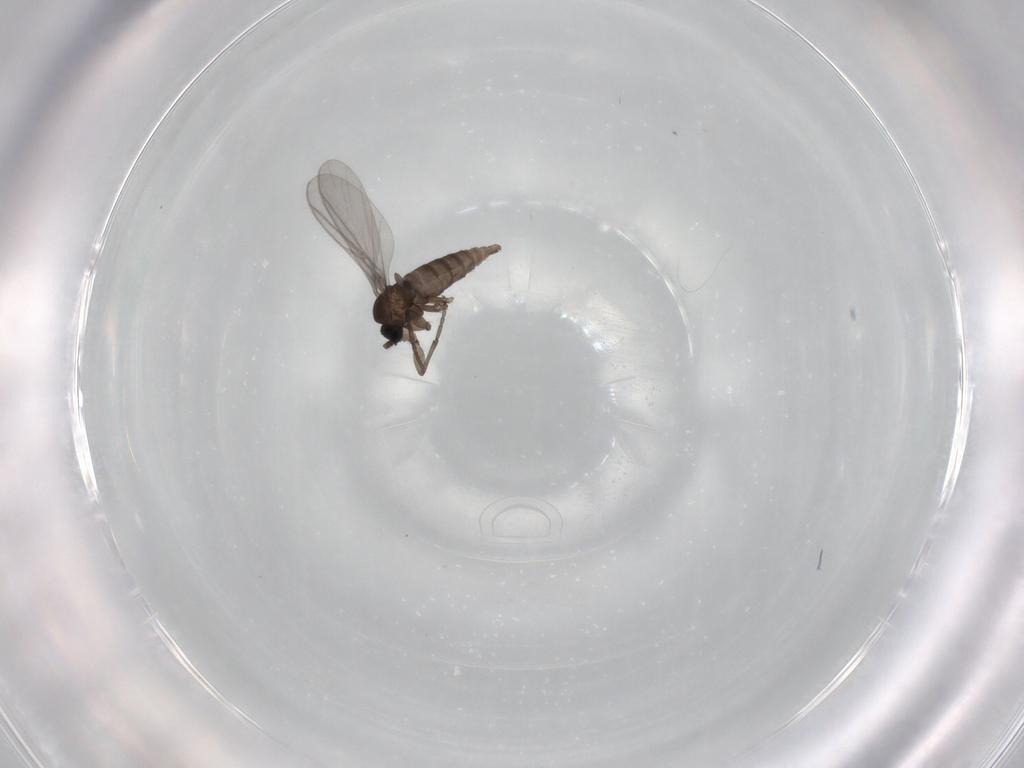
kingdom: Animalia
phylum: Arthropoda
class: Insecta
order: Diptera
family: Sciaridae
